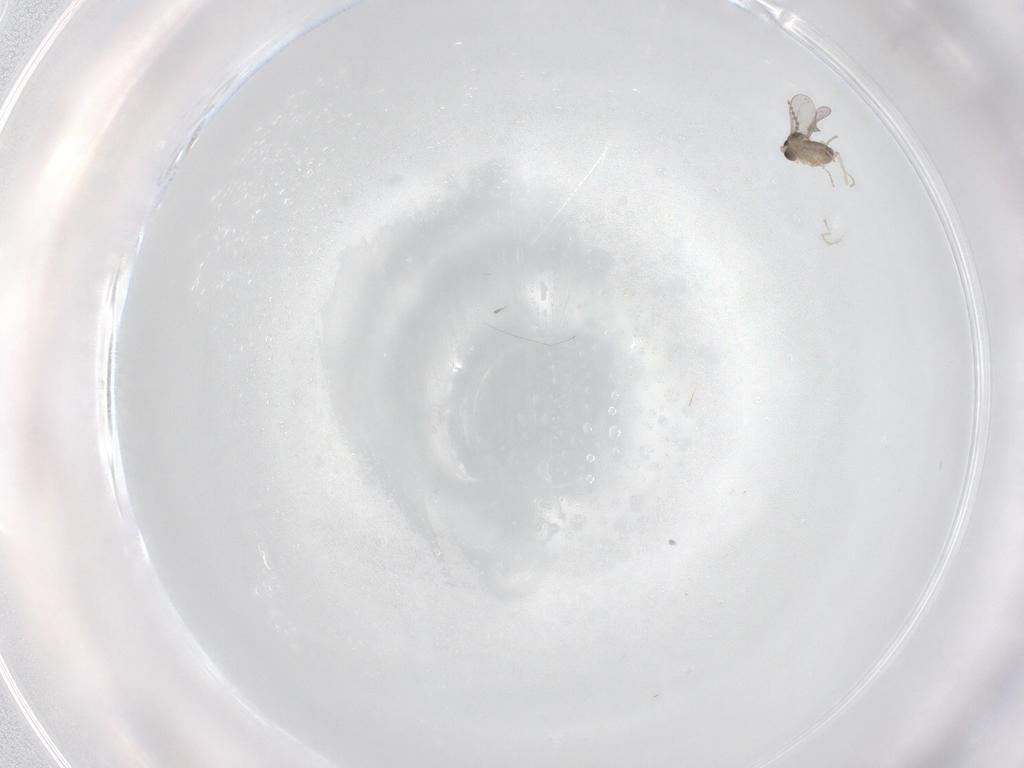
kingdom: Animalia
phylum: Arthropoda
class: Insecta
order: Diptera
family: Cecidomyiidae
